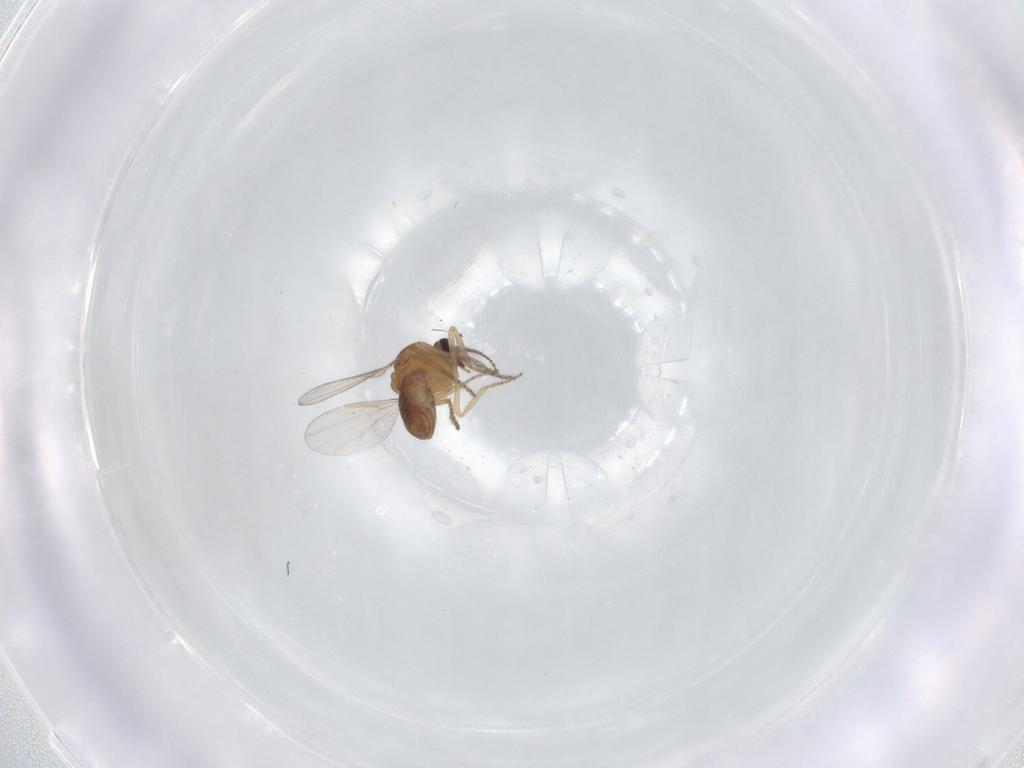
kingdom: Animalia
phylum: Arthropoda
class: Insecta
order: Diptera
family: Ceratopogonidae
